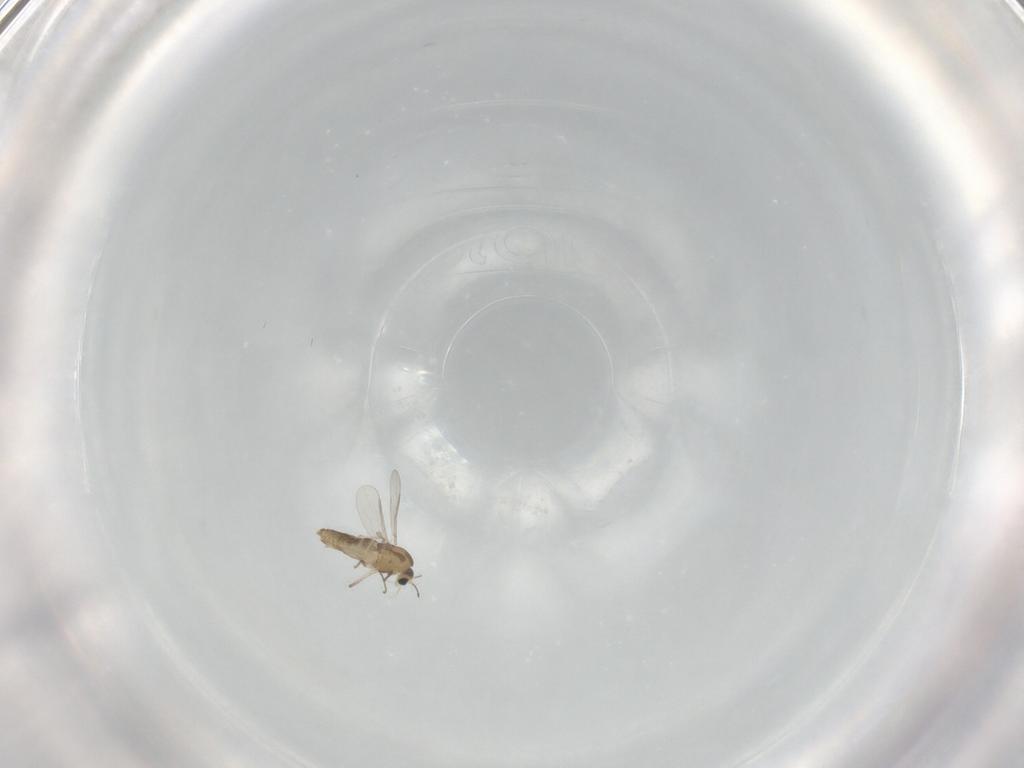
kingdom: Animalia
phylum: Arthropoda
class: Insecta
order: Diptera
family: Chironomidae
